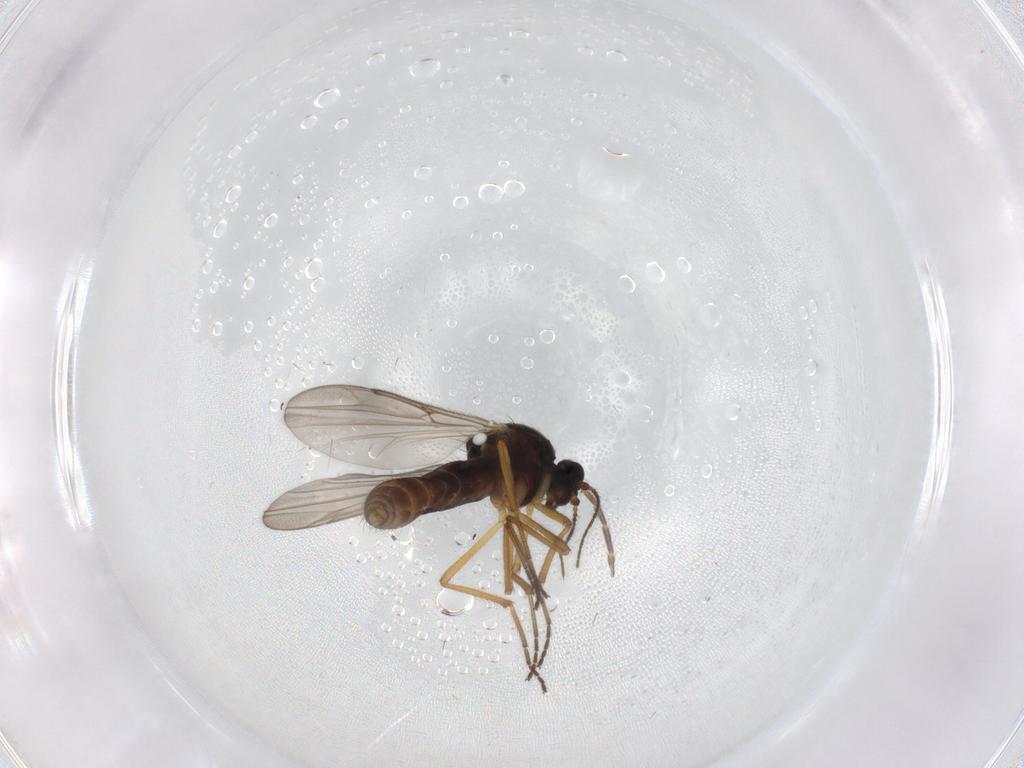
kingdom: Animalia
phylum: Arthropoda
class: Insecta
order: Diptera
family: Ceratopogonidae
